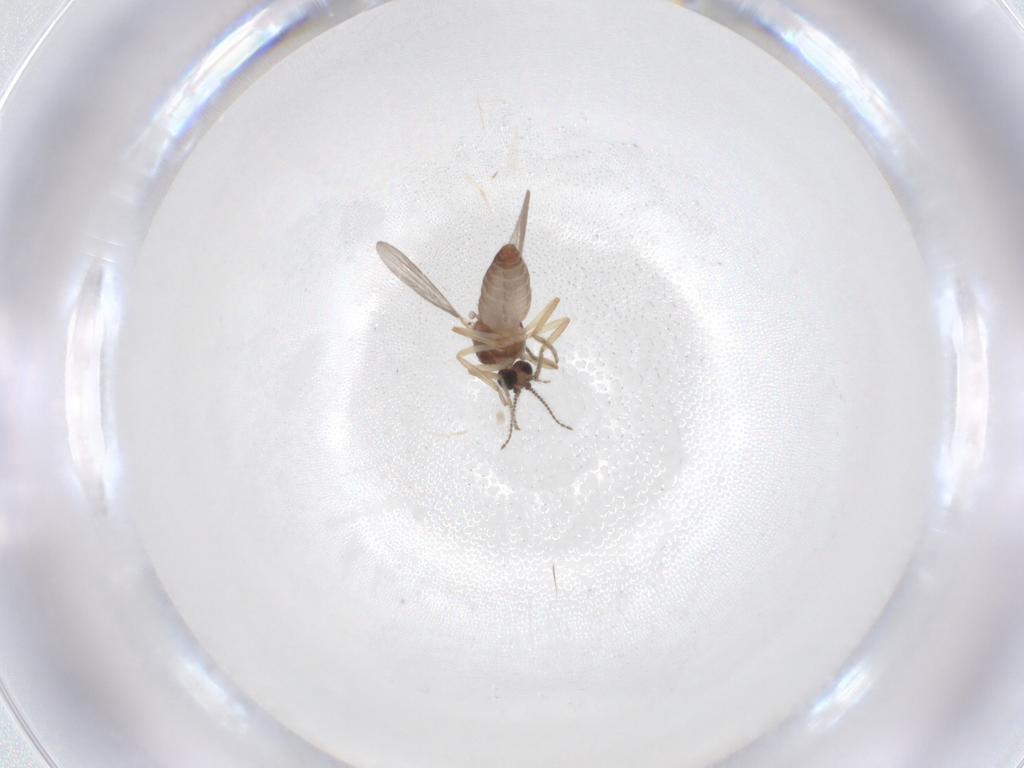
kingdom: Animalia
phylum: Arthropoda
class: Insecta
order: Diptera
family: Ceratopogonidae
